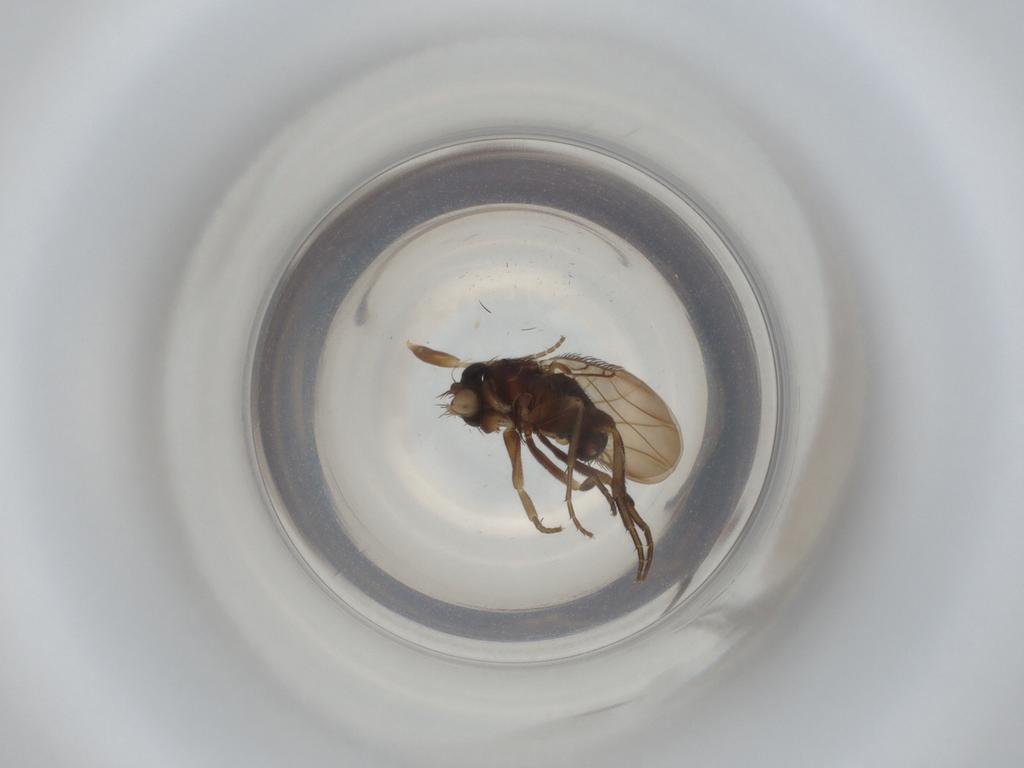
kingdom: Animalia
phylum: Arthropoda
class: Insecta
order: Diptera
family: Phoridae
